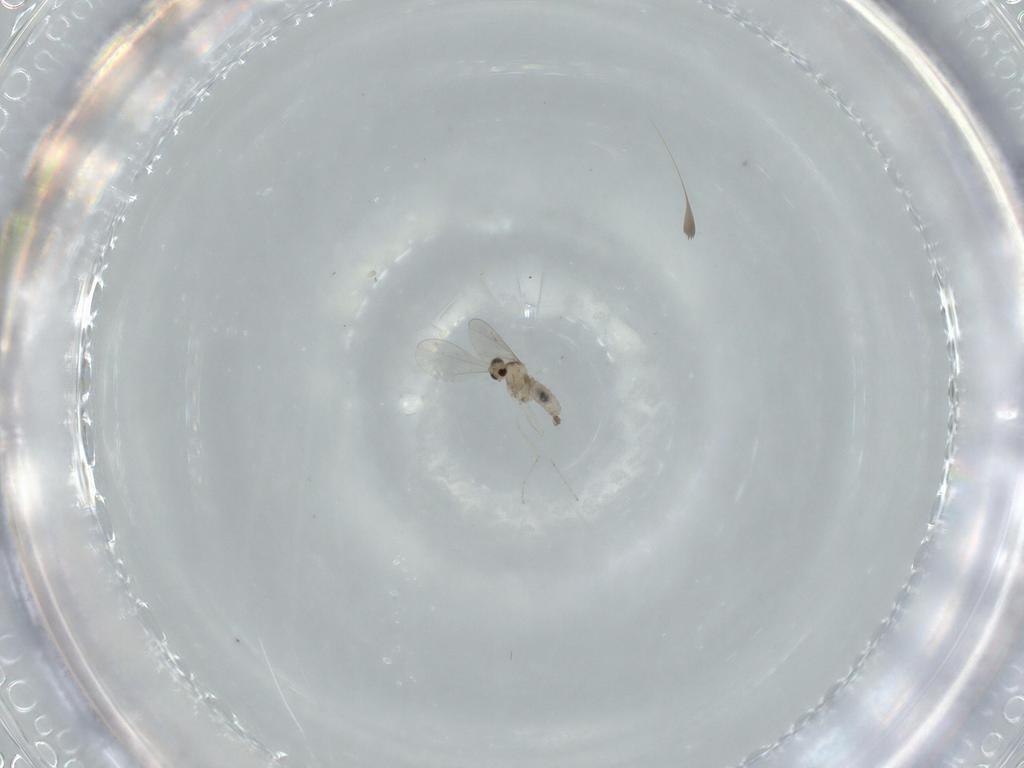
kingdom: Animalia
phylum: Arthropoda
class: Insecta
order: Diptera
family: Cecidomyiidae
